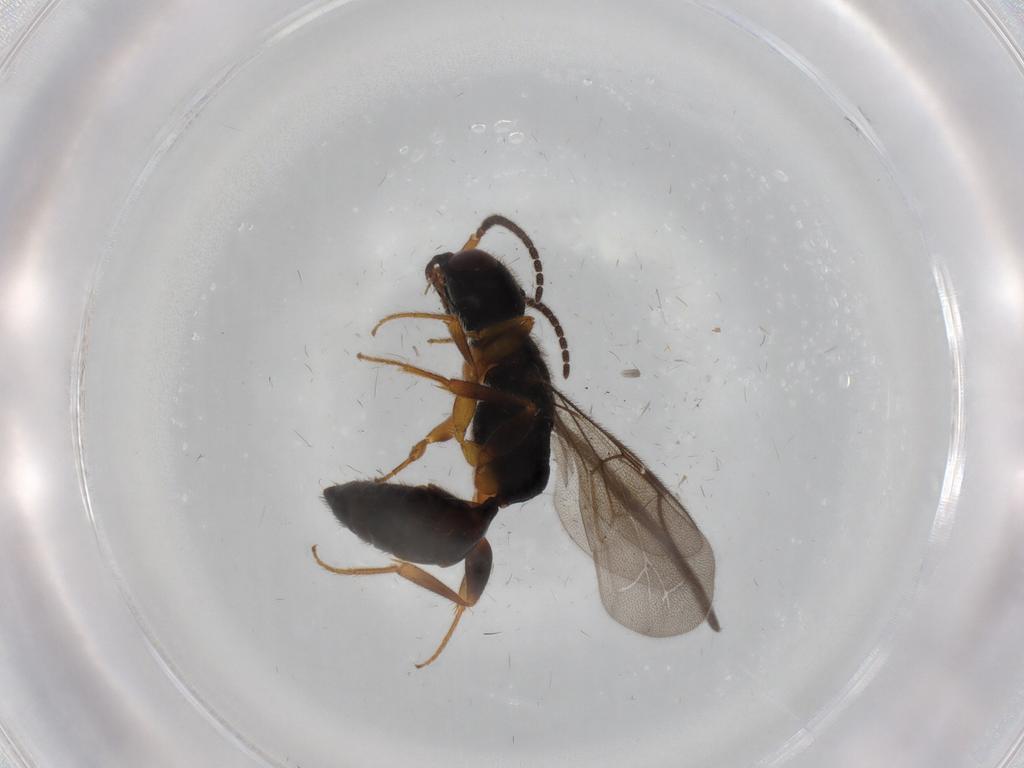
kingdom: Animalia
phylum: Arthropoda
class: Insecta
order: Hymenoptera
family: Bethylidae
